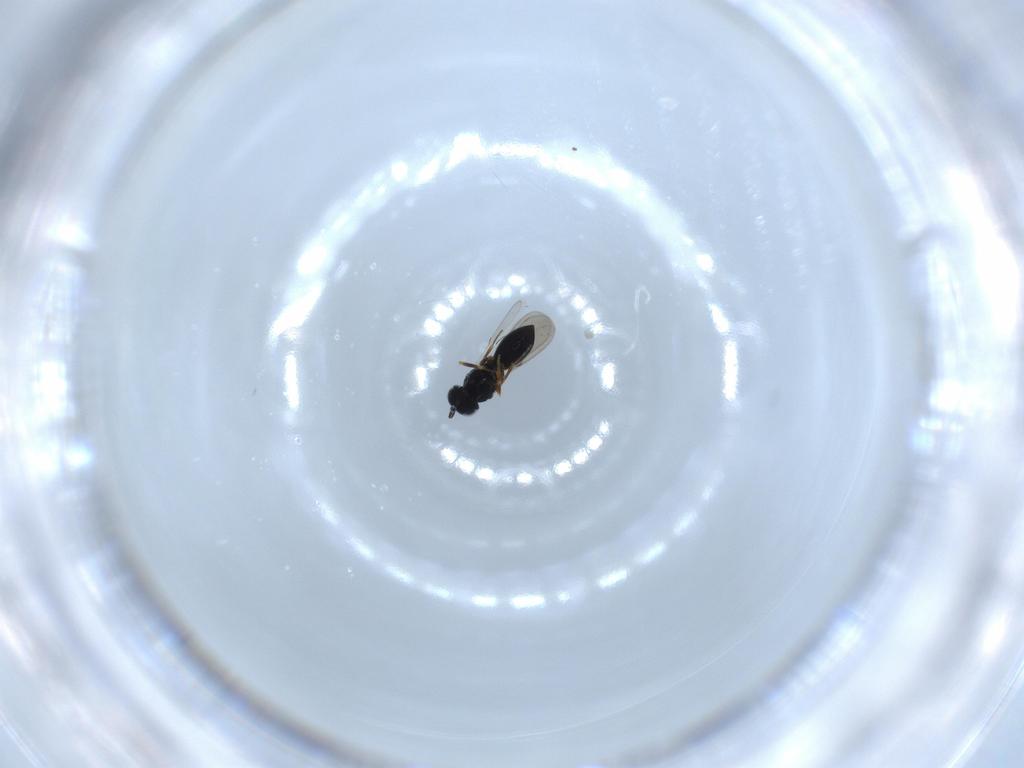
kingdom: Animalia
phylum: Arthropoda
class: Insecta
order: Hymenoptera
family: Scelionidae
